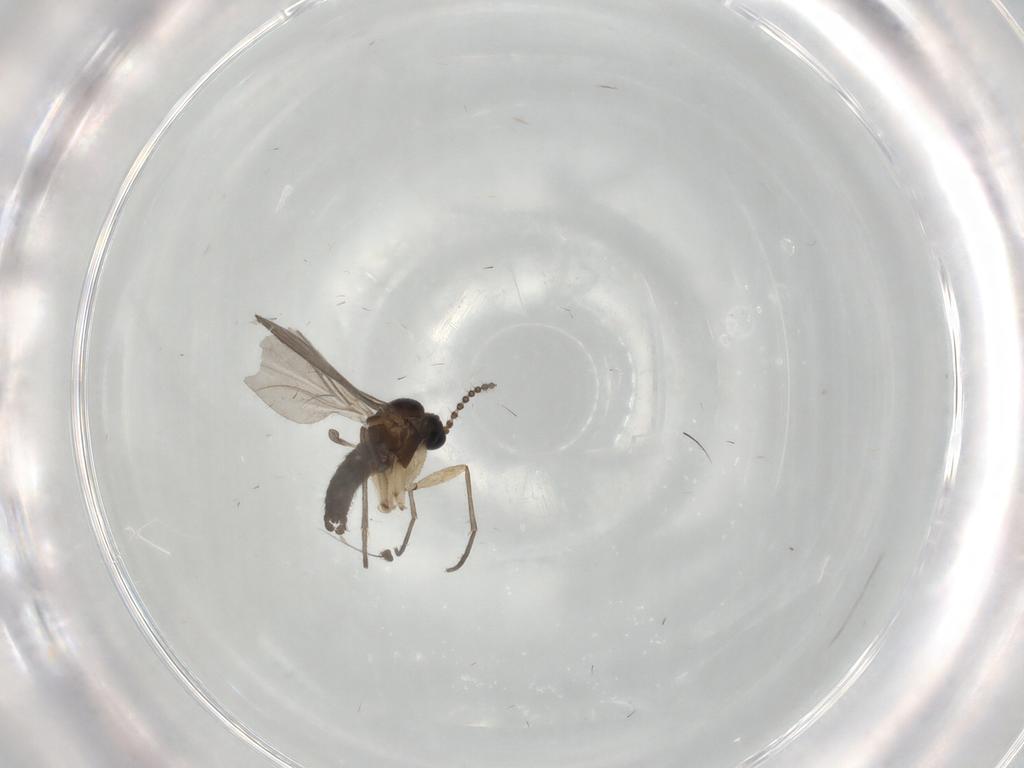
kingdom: Animalia
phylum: Arthropoda
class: Insecta
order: Diptera
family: Sciaridae
